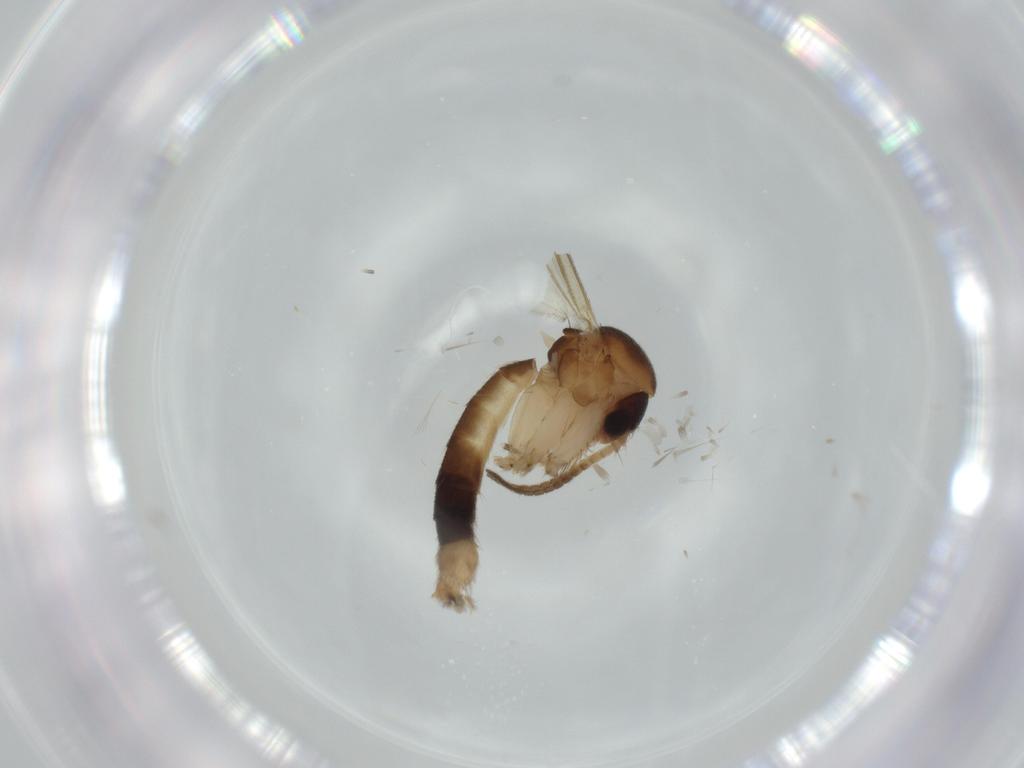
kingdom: Animalia
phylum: Arthropoda
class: Insecta
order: Diptera
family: Mycetophilidae
